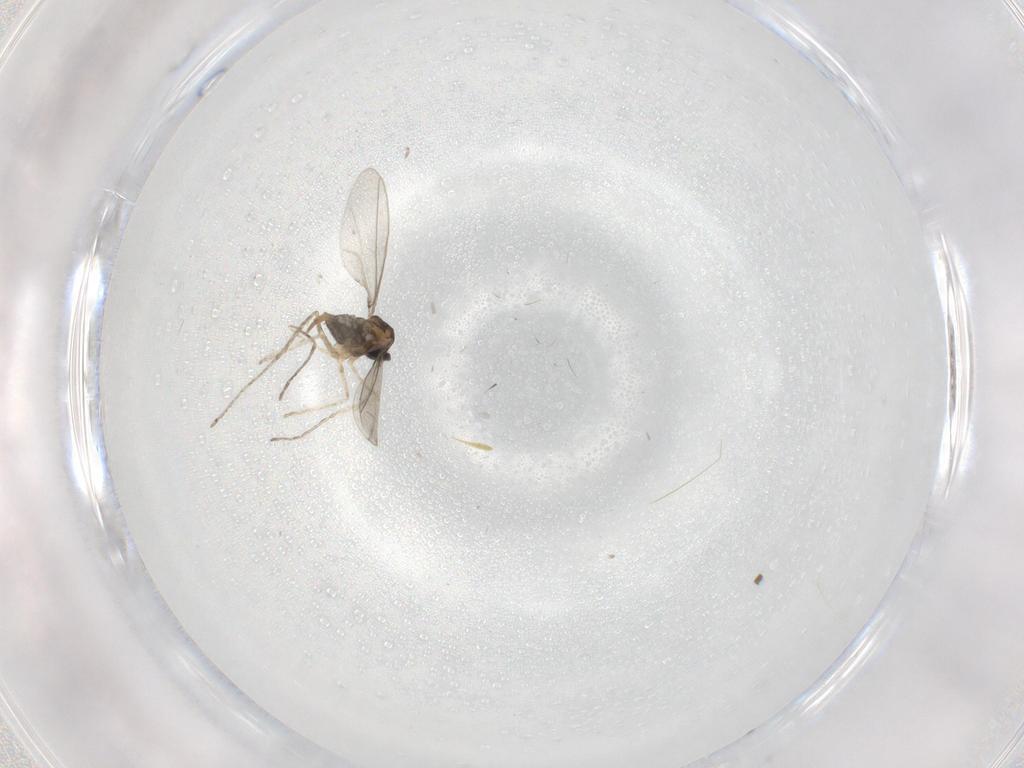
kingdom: Animalia
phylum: Arthropoda
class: Insecta
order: Diptera
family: Cecidomyiidae
